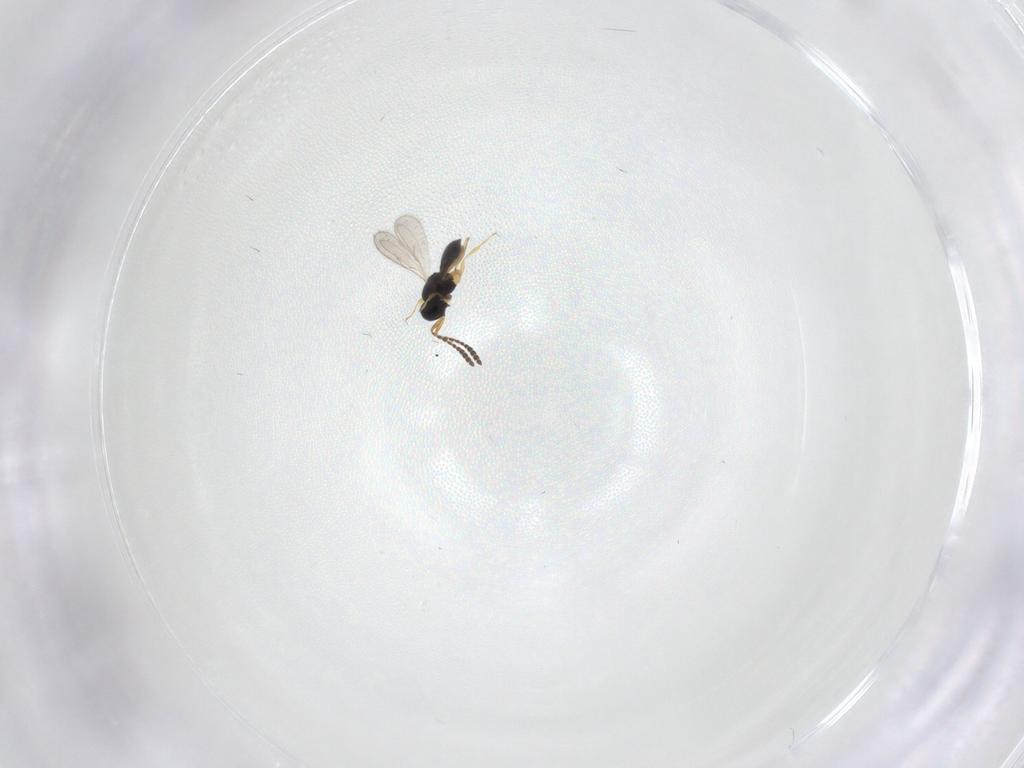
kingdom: Animalia
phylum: Arthropoda
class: Insecta
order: Hymenoptera
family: Scelionidae
